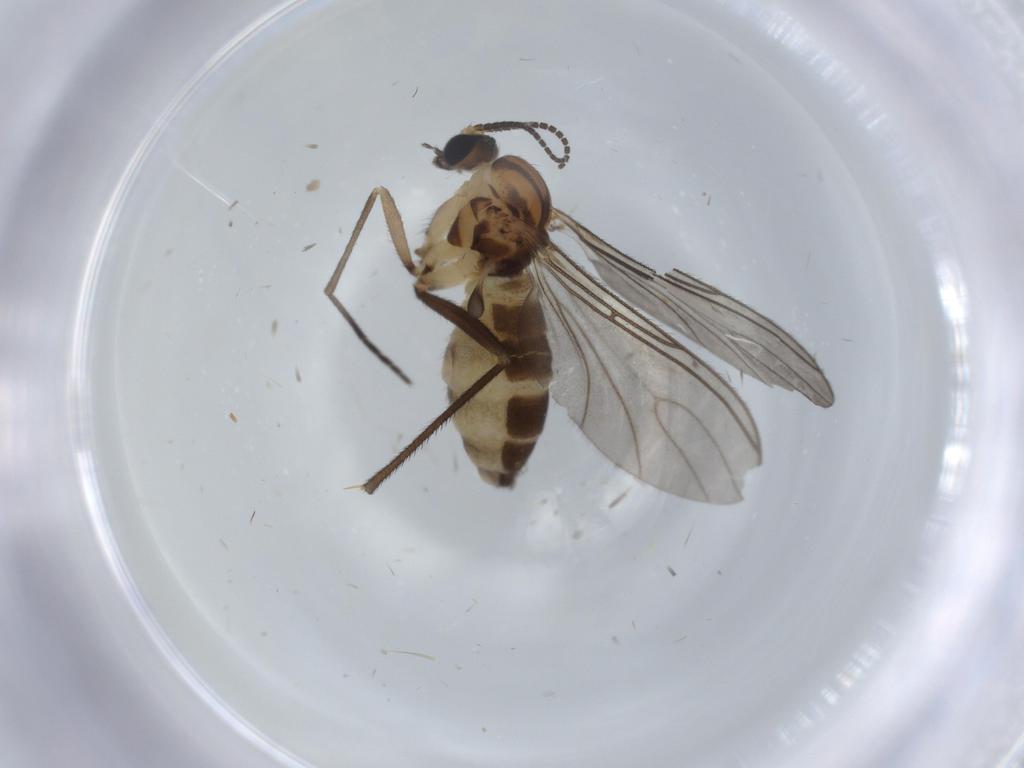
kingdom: Animalia
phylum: Arthropoda
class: Insecta
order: Diptera
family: Sciaridae
